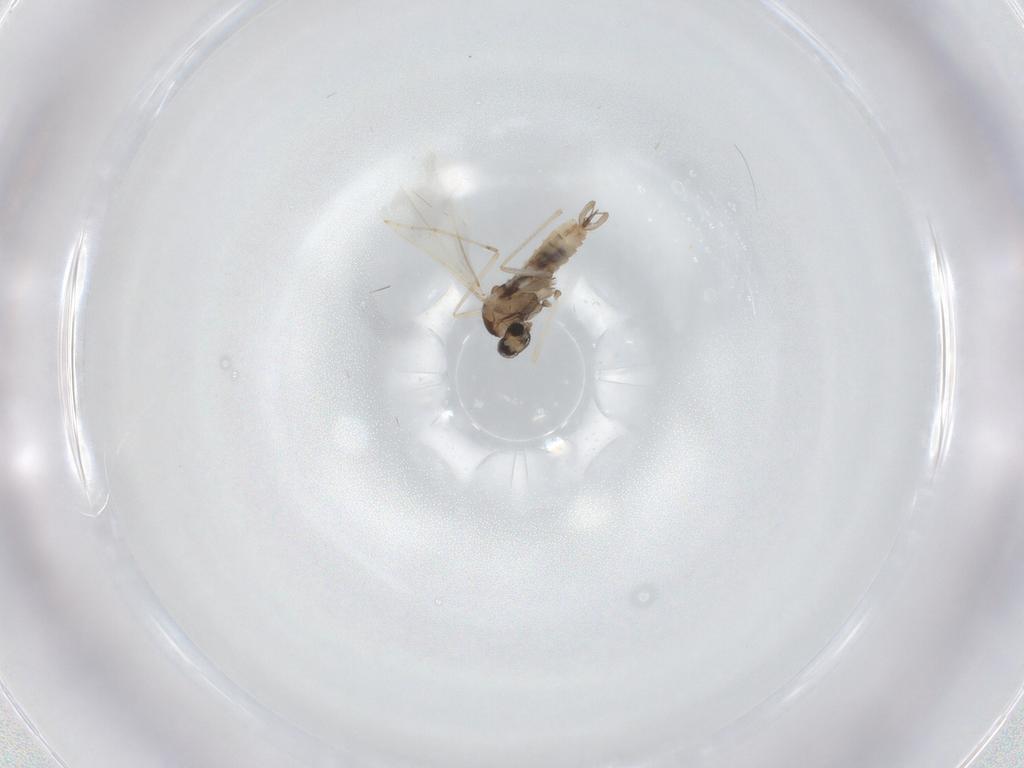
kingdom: Animalia
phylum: Arthropoda
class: Insecta
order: Diptera
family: Cecidomyiidae
